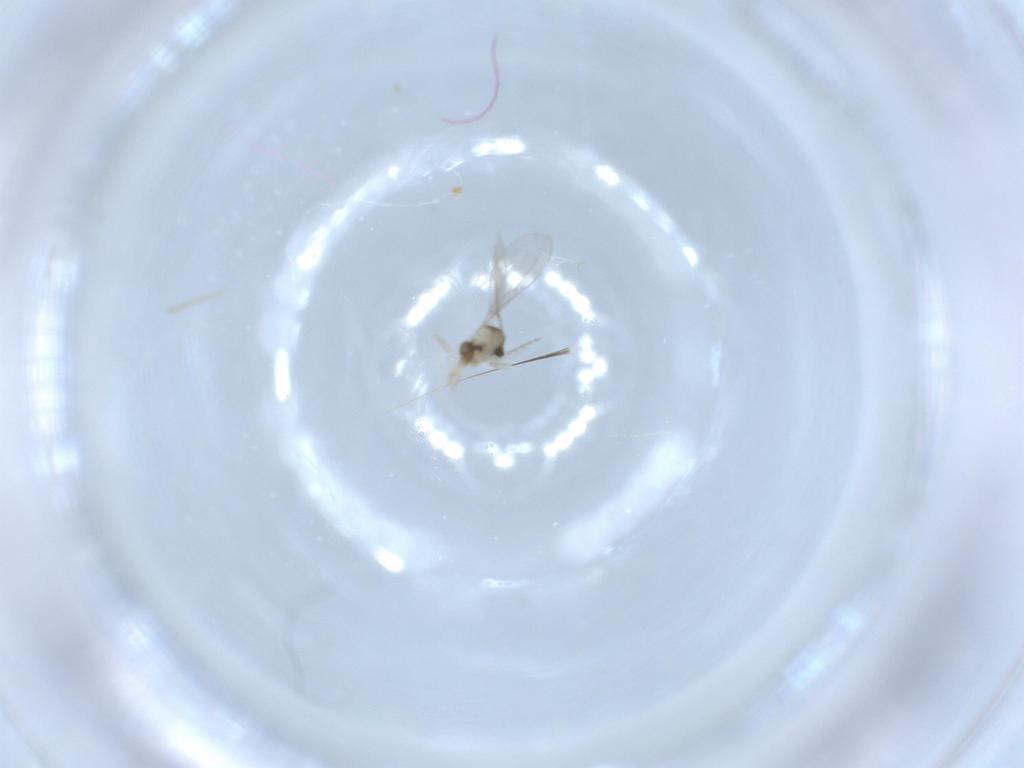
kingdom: Animalia
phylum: Arthropoda
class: Insecta
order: Diptera
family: Cecidomyiidae
